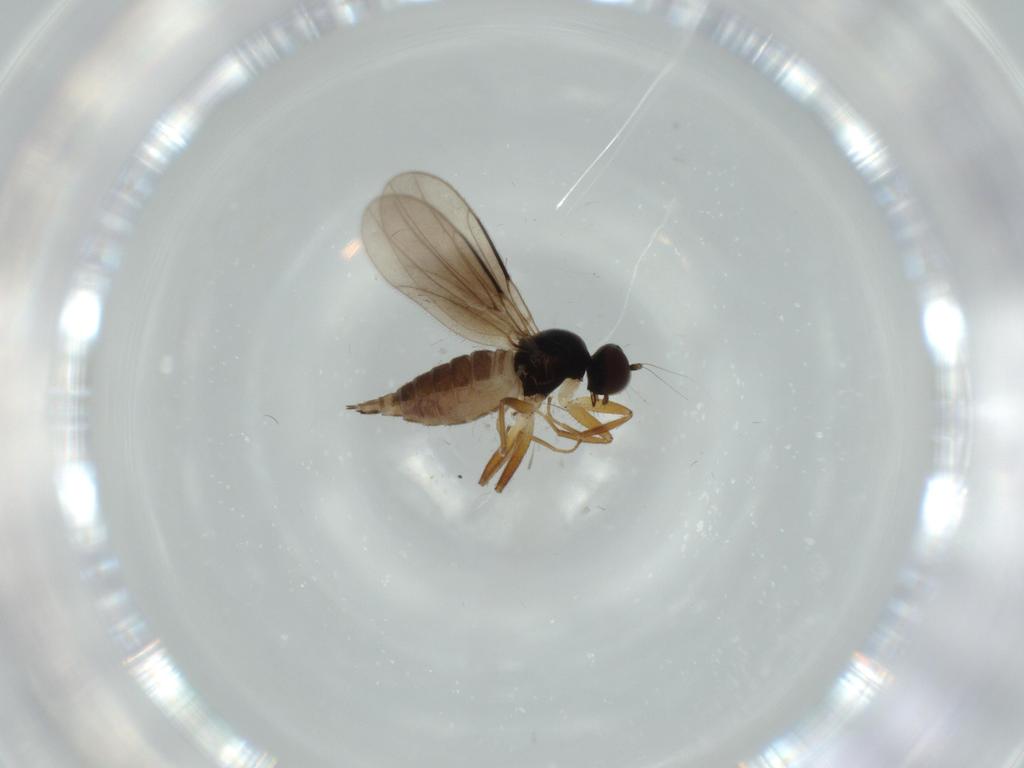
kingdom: Animalia
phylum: Arthropoda
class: Insecta
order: Diptera
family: Hybotidae
